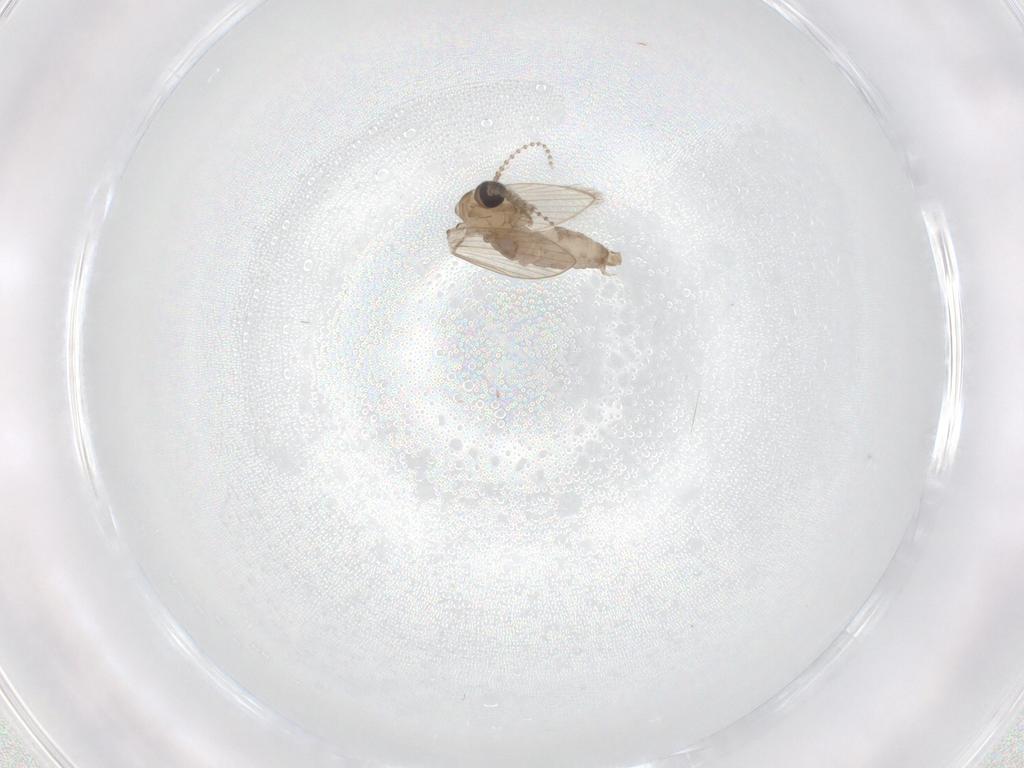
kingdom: Animalia
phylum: Arthropoda
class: Insecta
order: Diptera
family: Psychodidae
